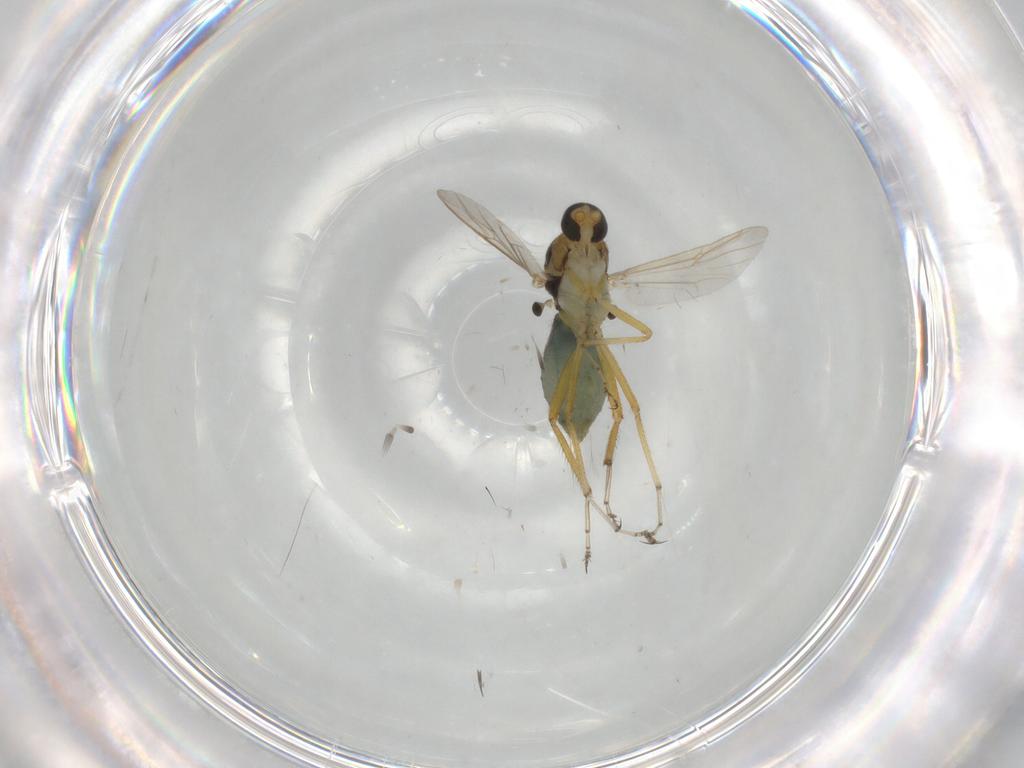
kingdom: Animalia
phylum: Arthropoda
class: Insecta
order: Diptera
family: Ceratopogonidae
